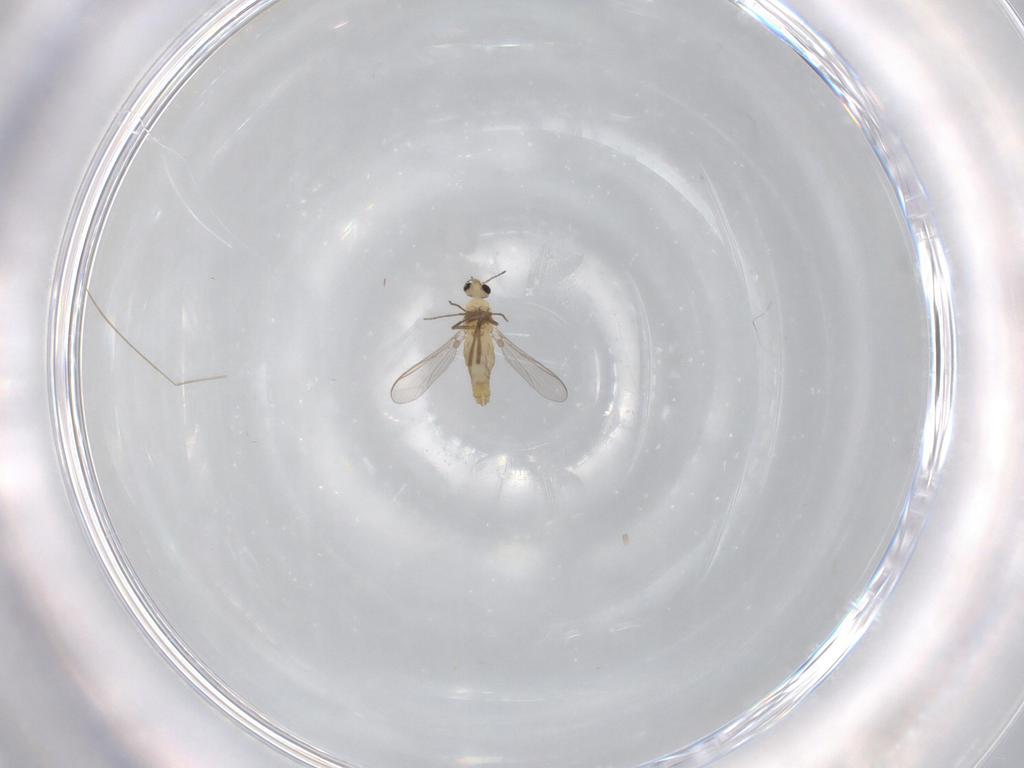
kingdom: Animalia
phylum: Arthropoda
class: Insecta
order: Diptera
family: Chironomidae
